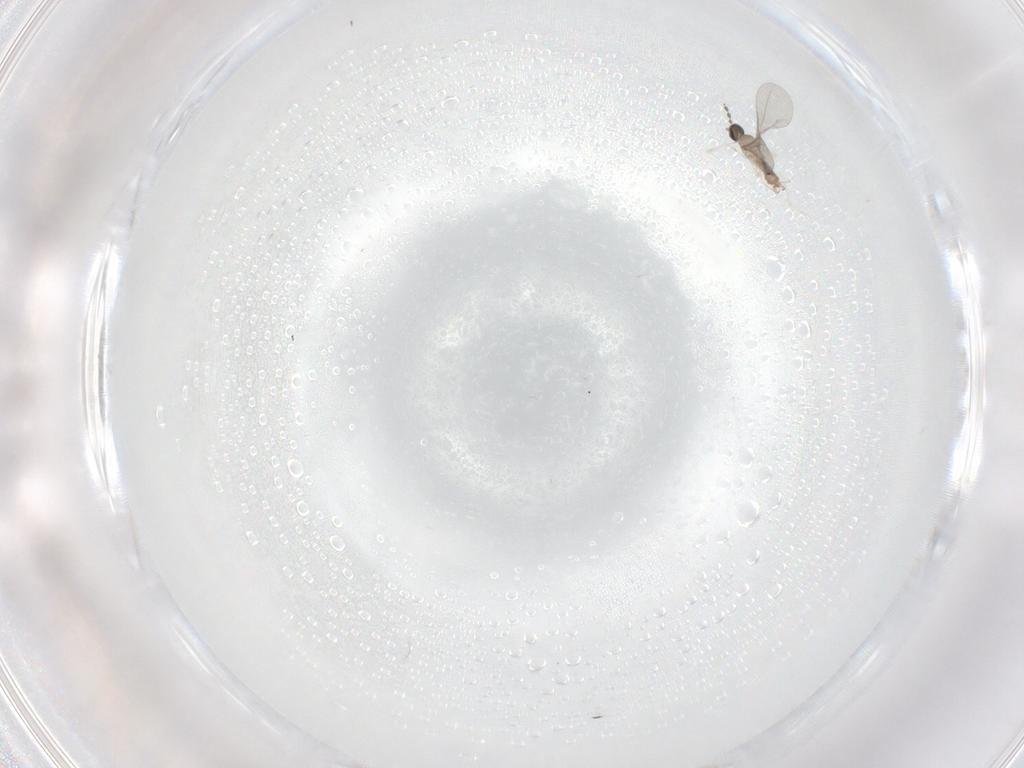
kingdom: Animalia
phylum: Arthropoda
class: Insecta
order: Diptera
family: Cecidomyiidae
